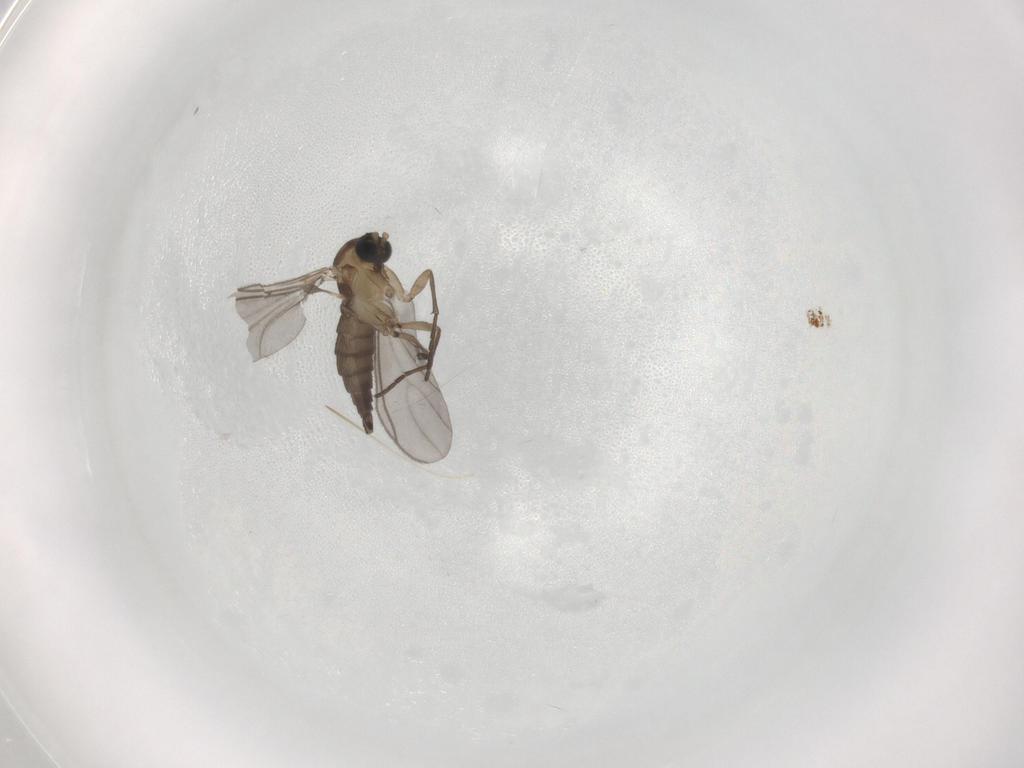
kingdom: Animalia
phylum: Arthropoda
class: Insecta
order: Diptera
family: Sciaridae
